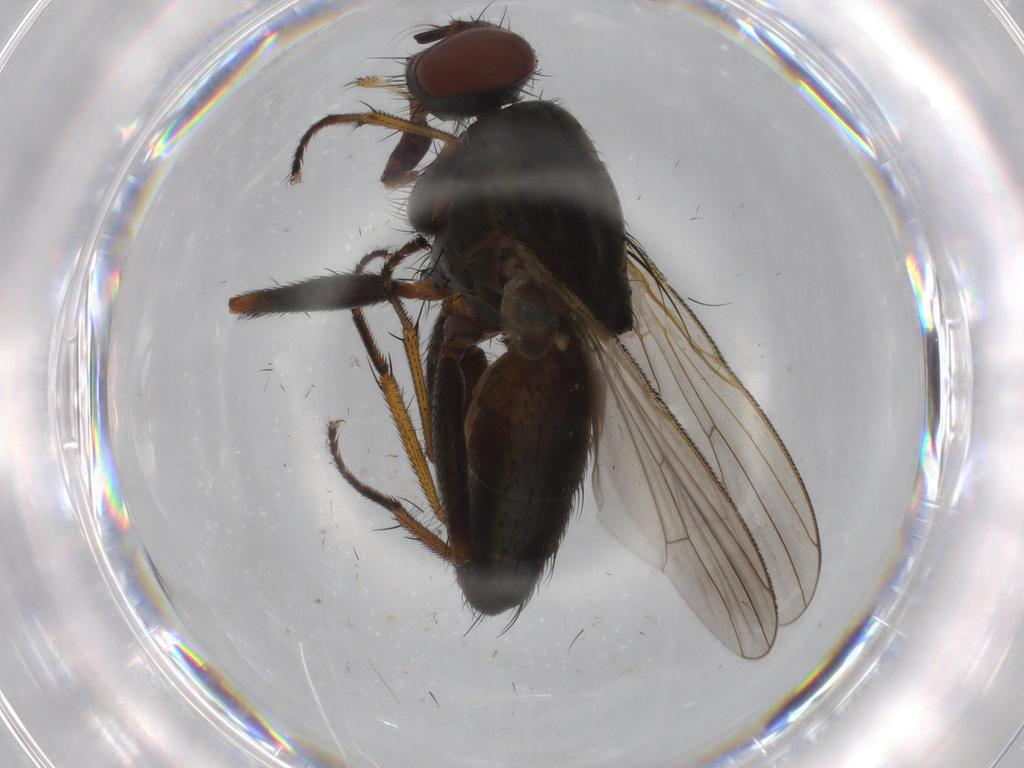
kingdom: Animalia
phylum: Arthropoda
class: Insecta
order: Diptera
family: Muscidae
